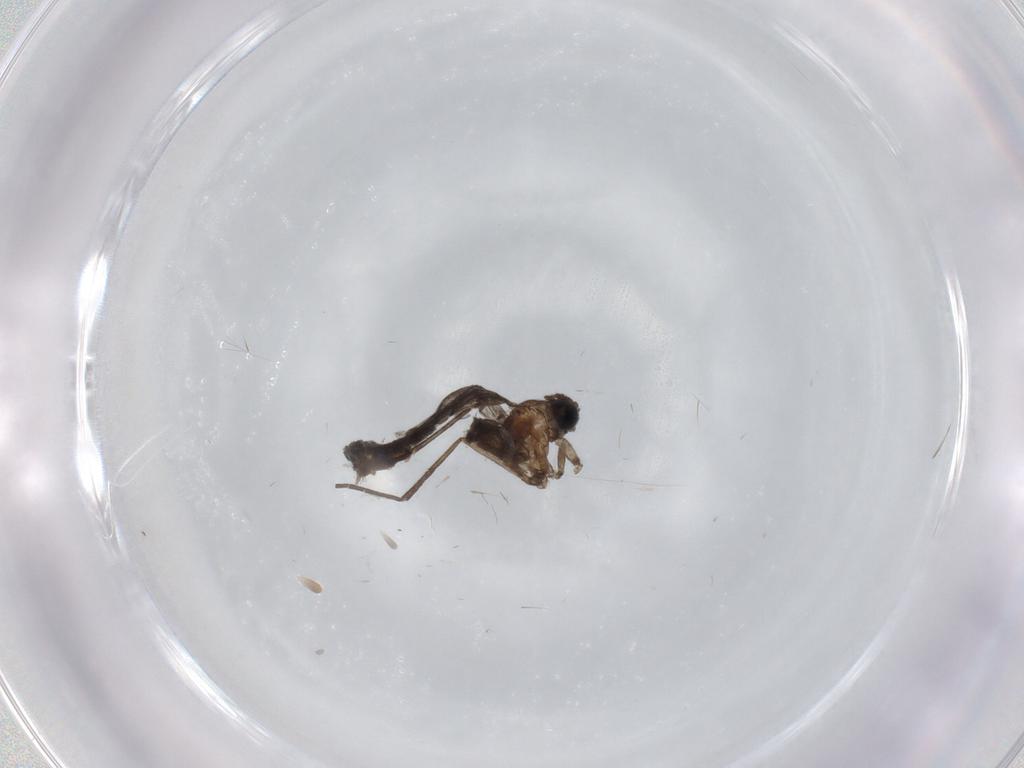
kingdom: Animalia
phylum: Arthropoda
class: Insecta
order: Diptera
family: Chironomidae
